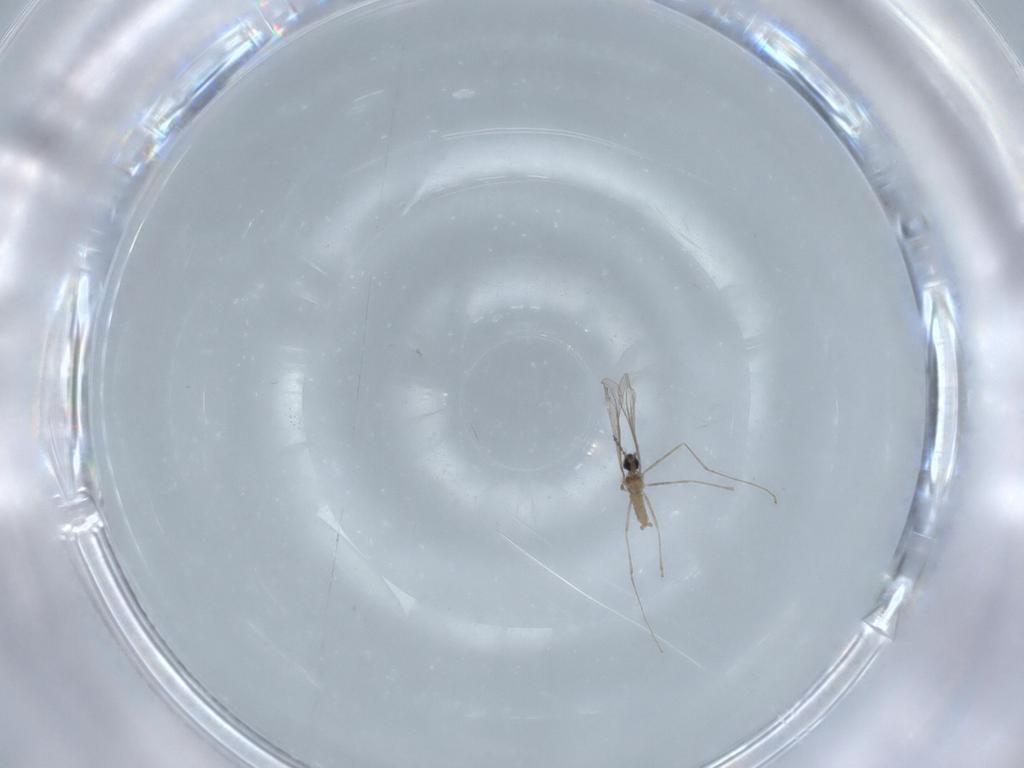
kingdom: Animalia
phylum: Arthropoda
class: Insecta
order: Diptera
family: Cecidomyiidae
